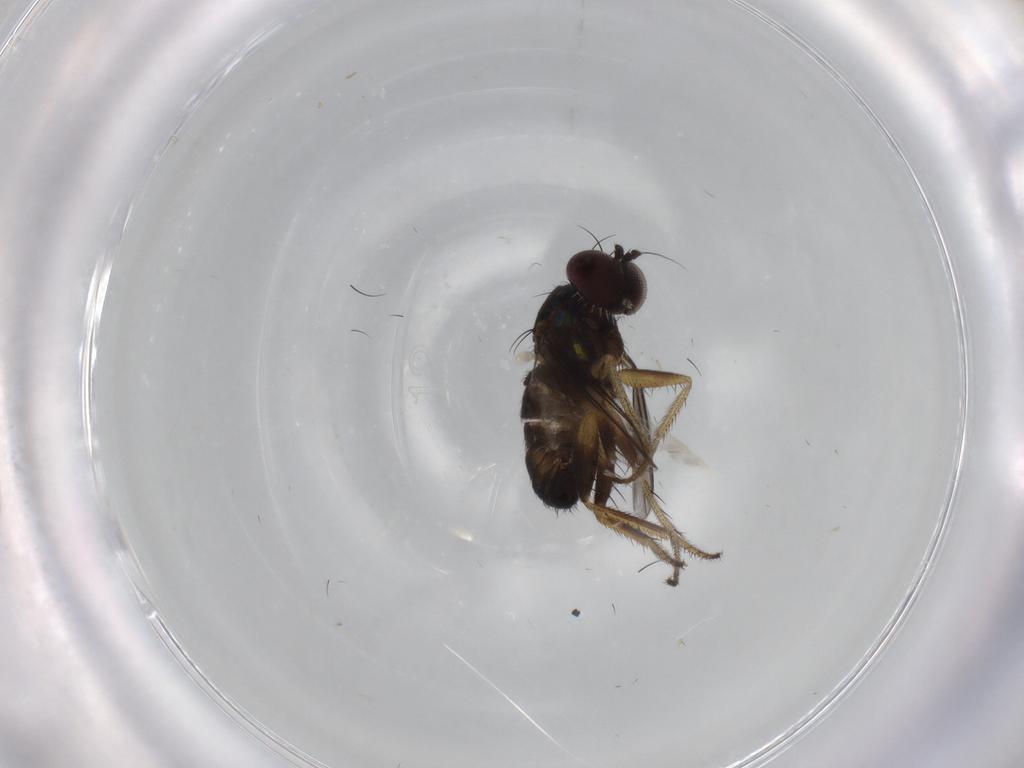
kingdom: Animalia
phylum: Arthropoda
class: Insecta
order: Diptera
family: Dolichopodidae
